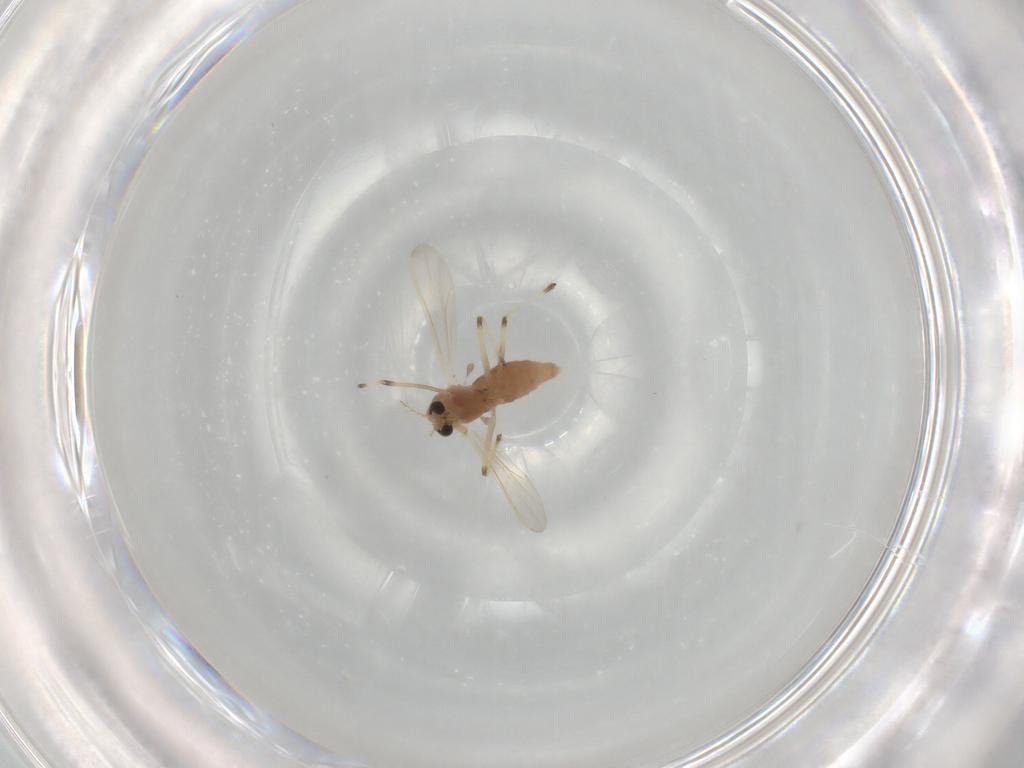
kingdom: Animalia
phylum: Arthropoda
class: Insecta
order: Diptera
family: Chironomidae
